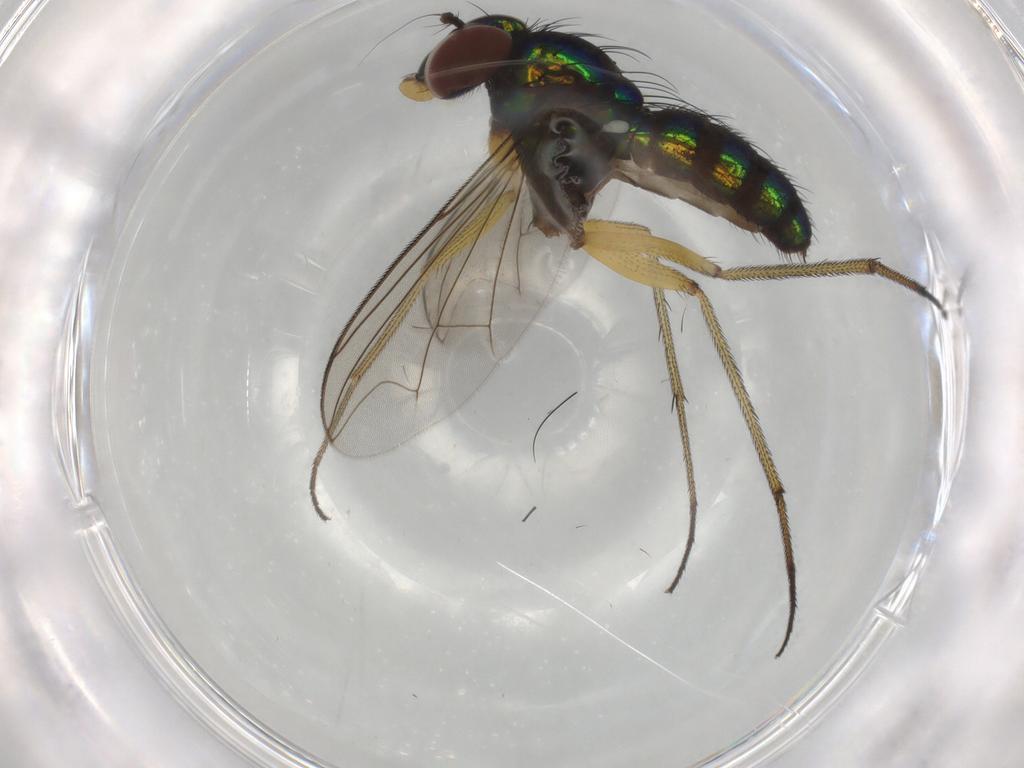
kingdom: Animalia
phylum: Arthropoda
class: Insecta
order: Diptera
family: Dolichopodidae
